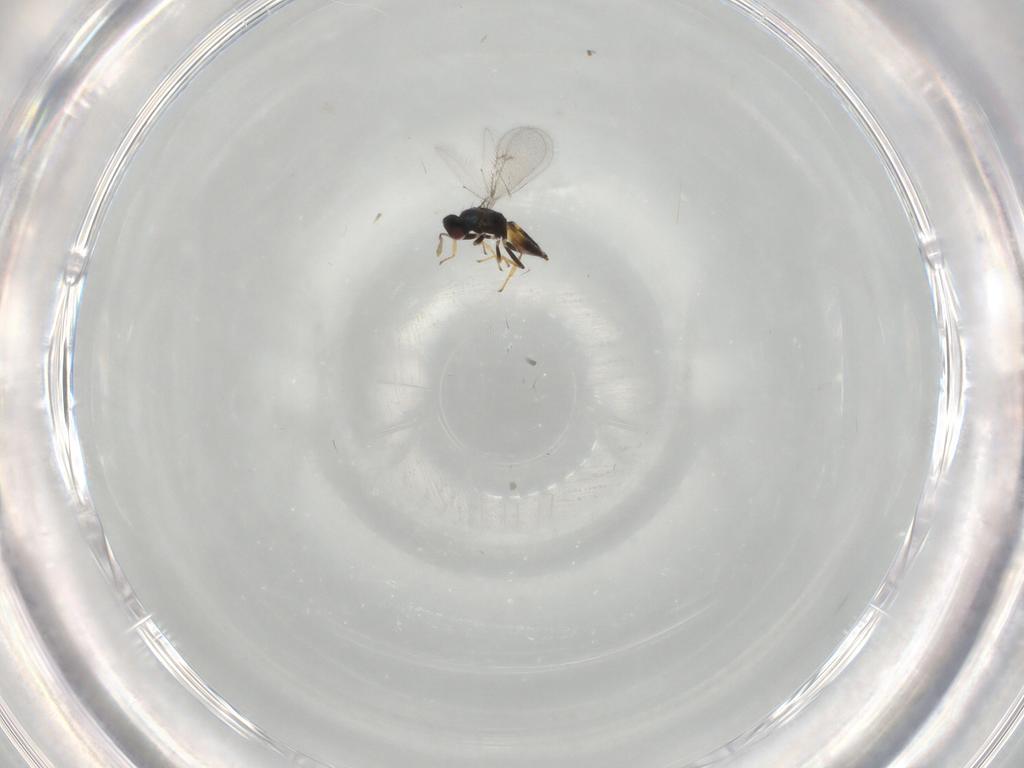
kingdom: Animalia
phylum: Arthropoda
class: Insecta
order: Hymenoptera
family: Eulophidae
